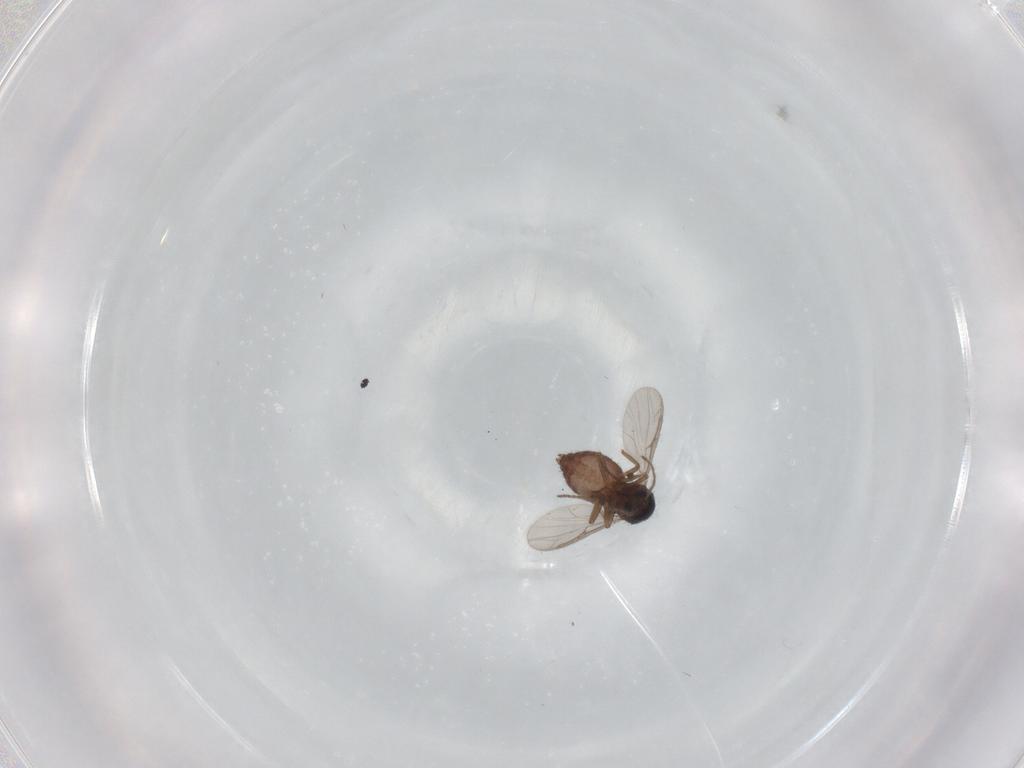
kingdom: Animalia
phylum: Arthropoda
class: Insecta
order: Diptera
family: Ceratopogonidae
